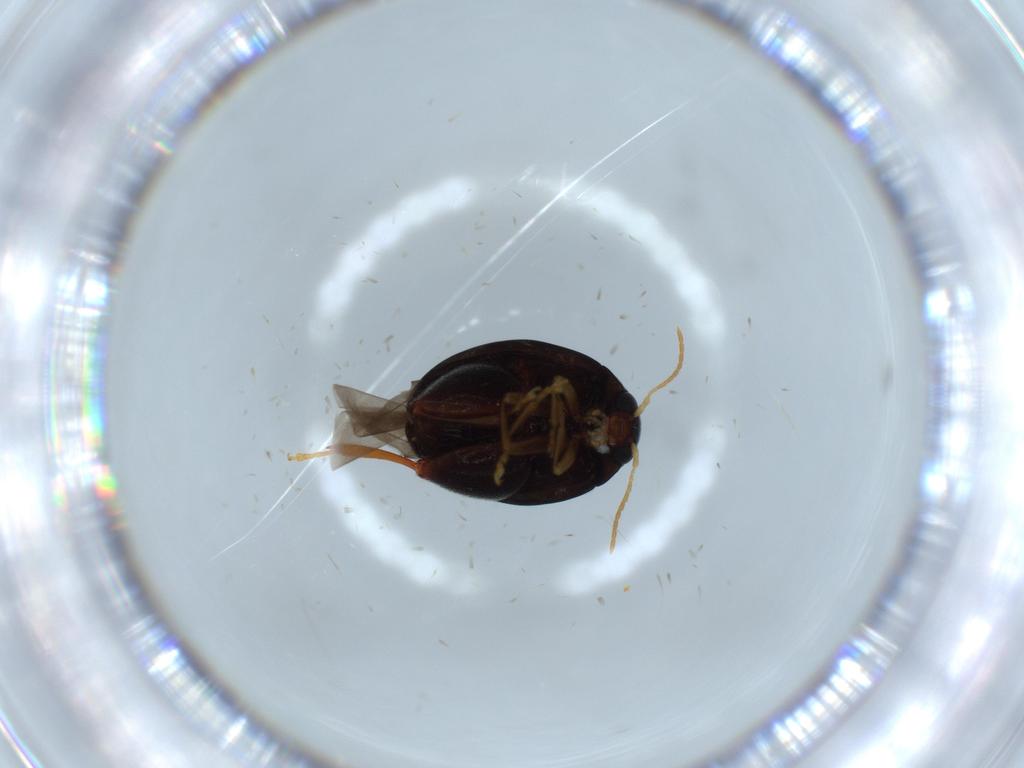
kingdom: Animalia
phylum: Arthropoda
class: Insecta
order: Coleoptera
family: Chrysomelidae
